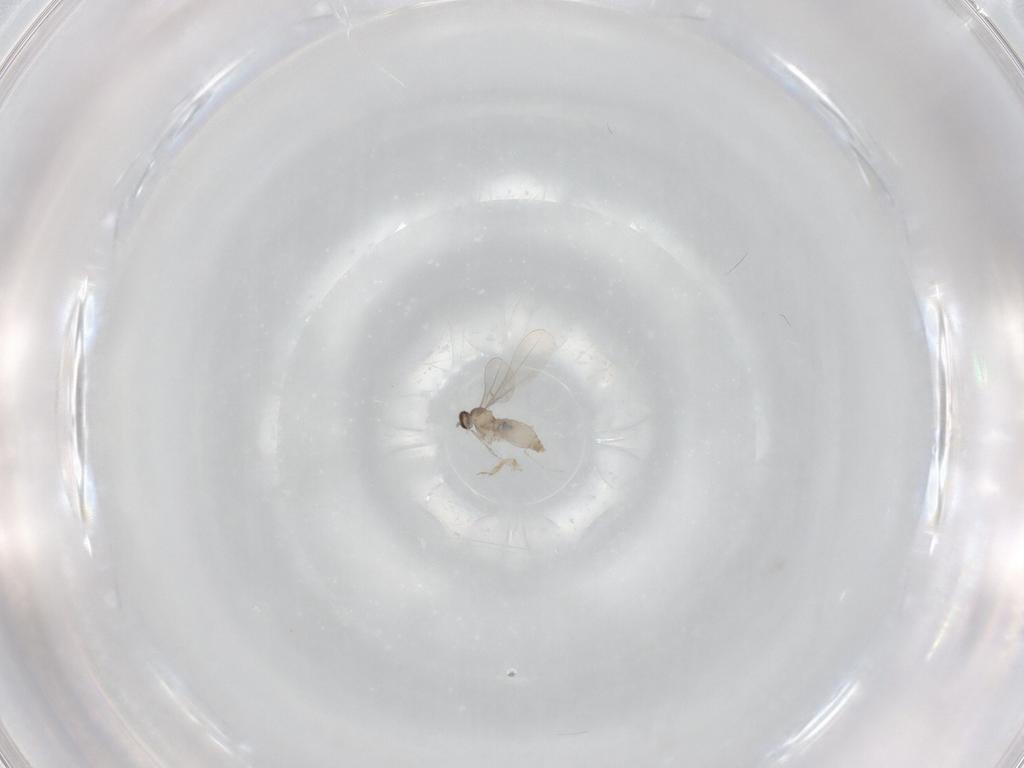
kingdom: Animalia
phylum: Arthropoda
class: Insecta
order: Diptera
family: Cecidomyiidae
